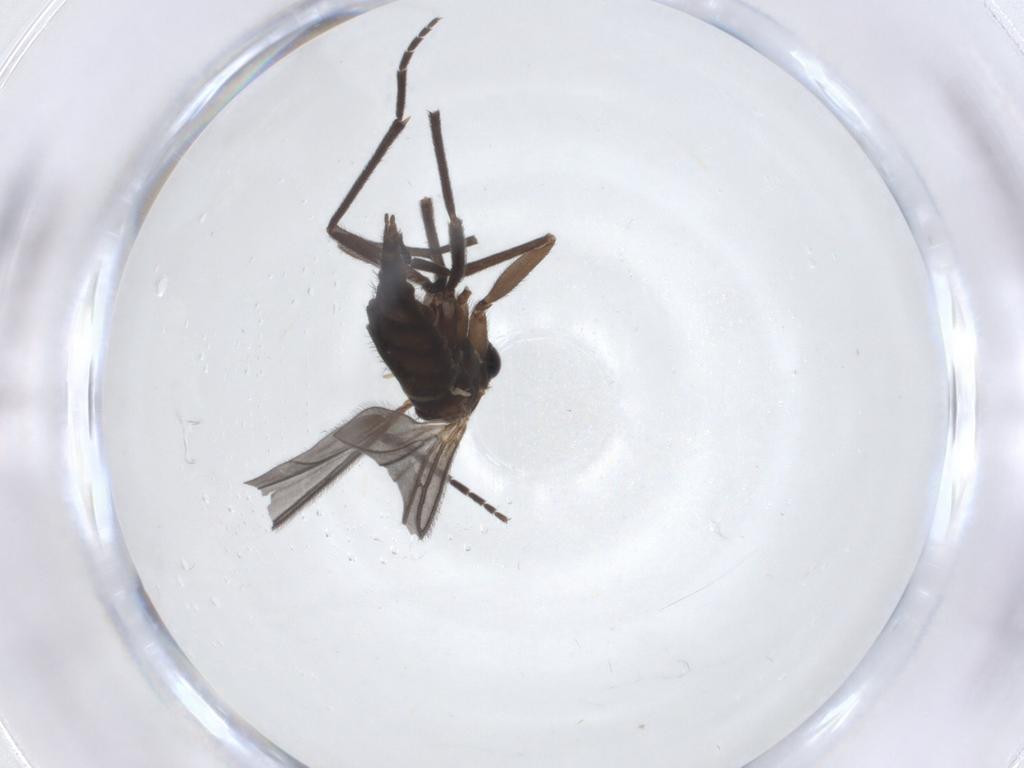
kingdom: Animalia
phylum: Arthropoda
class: Insecta
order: Diptera
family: Sciaridae
